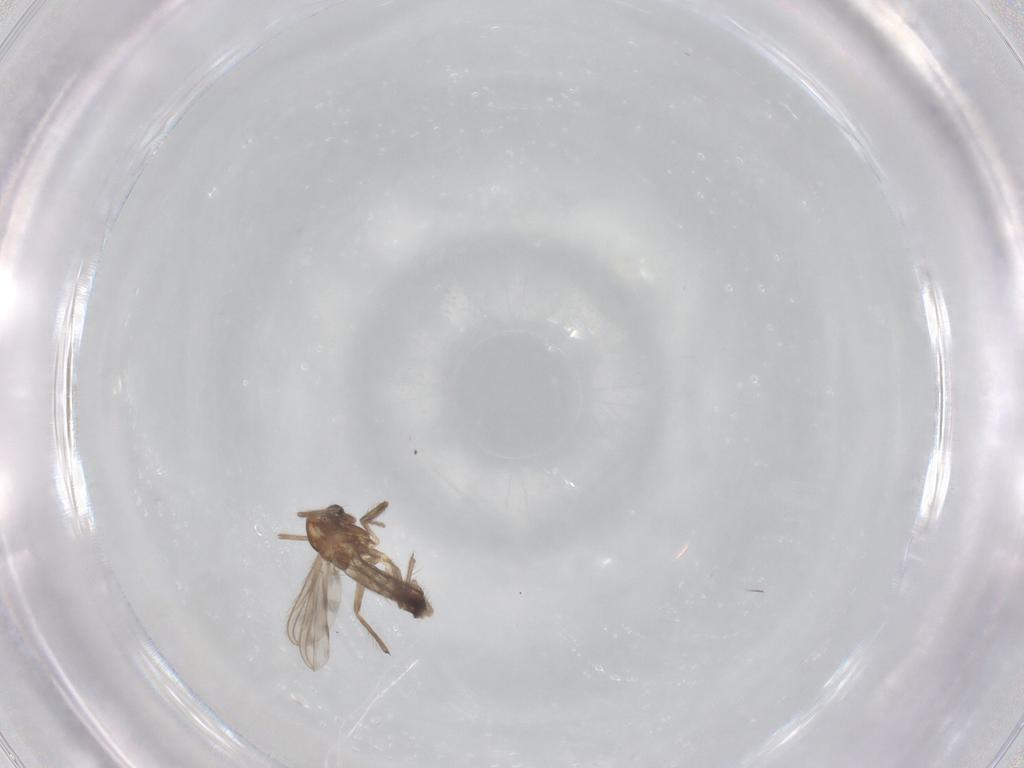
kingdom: Animalia
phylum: Arthropoda
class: Insecta
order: Diptera
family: Chironomidae
